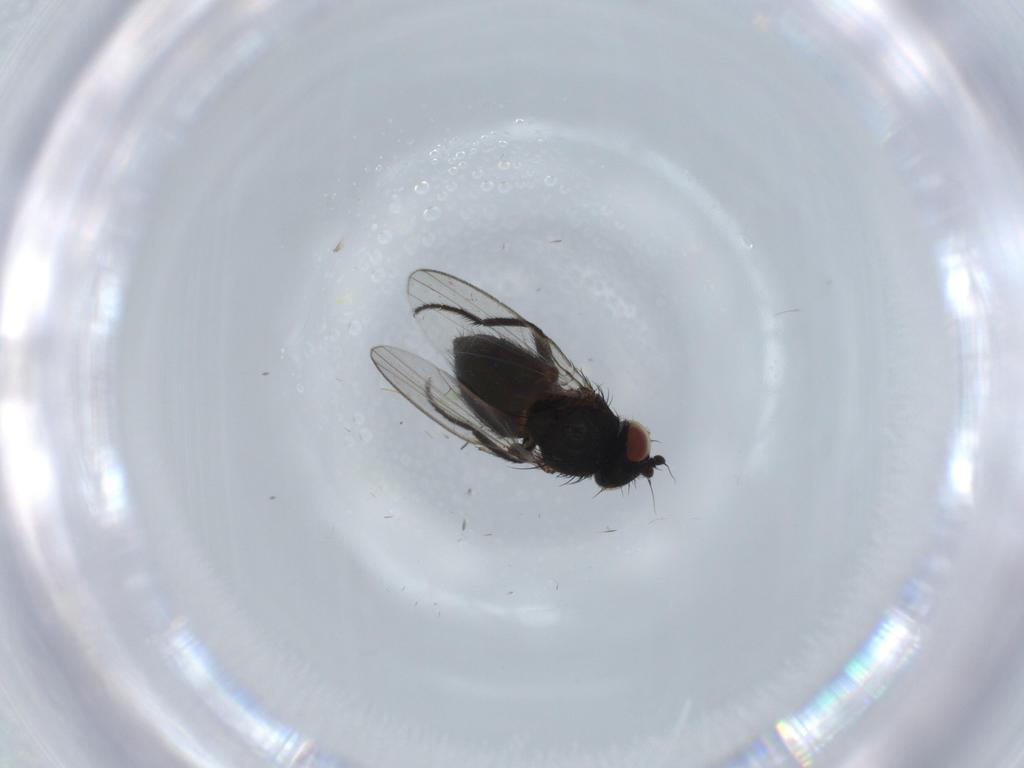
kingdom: Animalia
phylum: Arthropoda
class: Insecta
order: Diptera
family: Milichiidae
